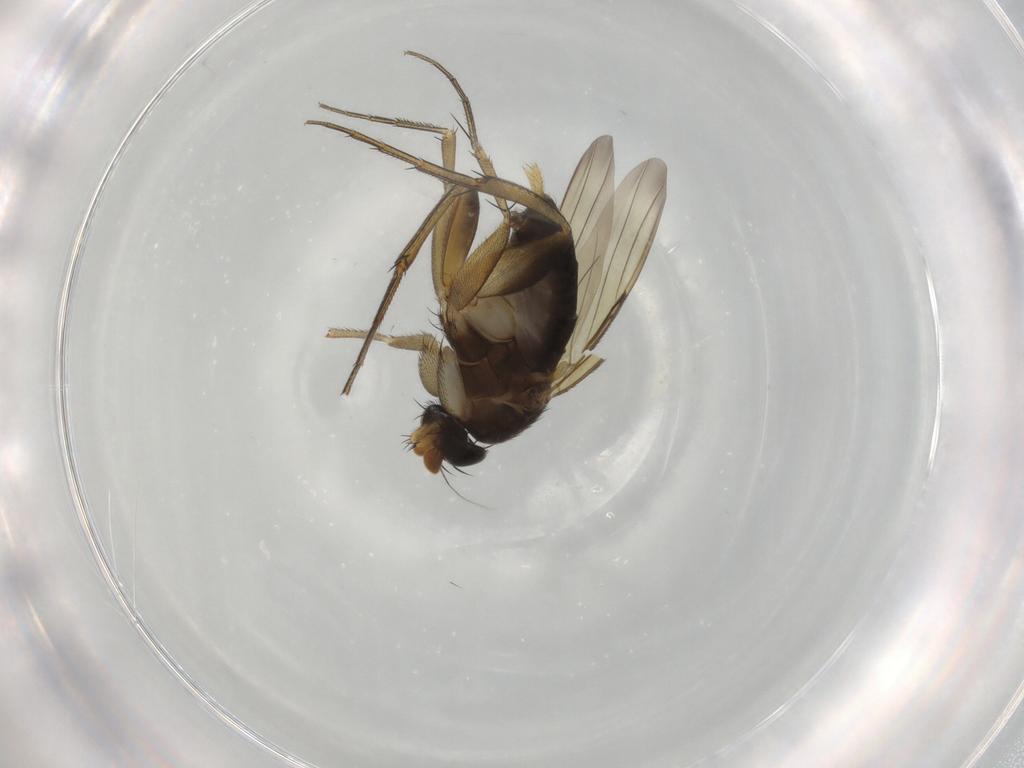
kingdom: Animalia
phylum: Arthropoda
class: Insecta
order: Diptera
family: Phoridae
